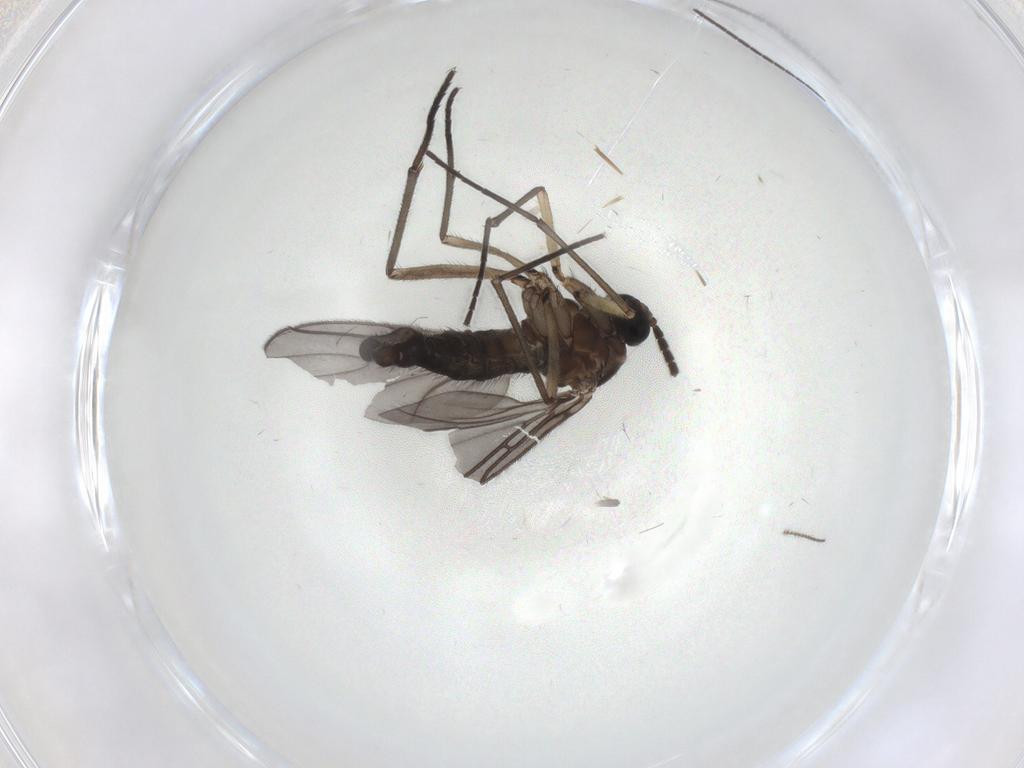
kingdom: Animalia
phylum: Arthropoda
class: Insecta
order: Diptera
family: Sciaridae
